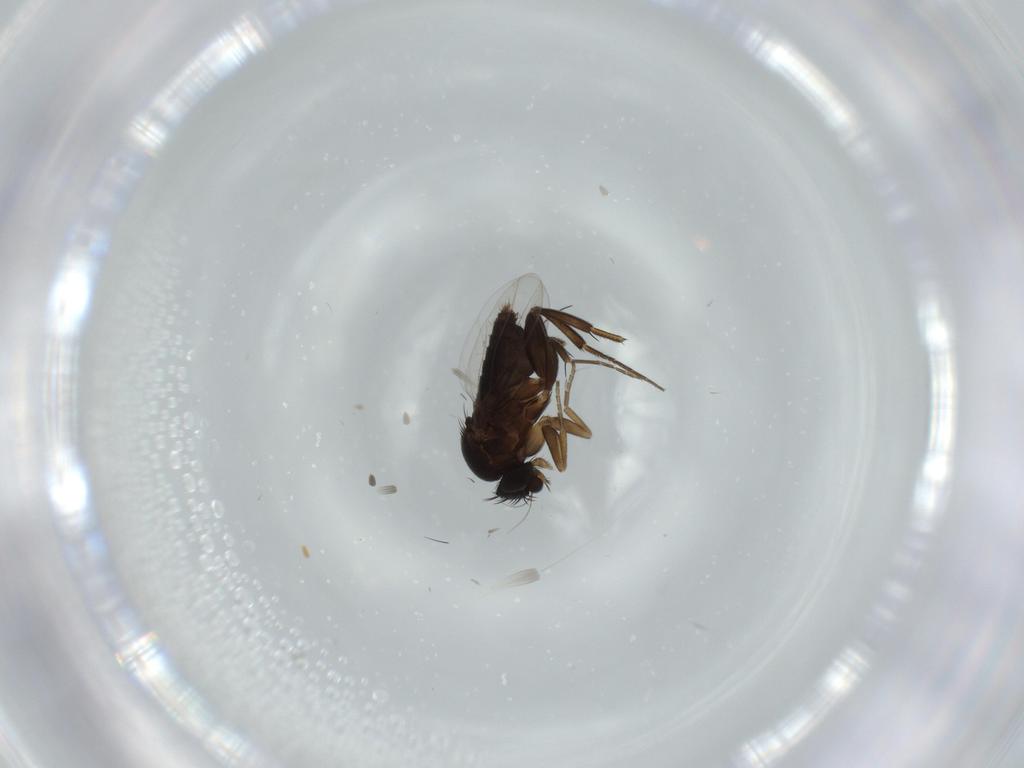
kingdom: Animalia
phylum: Arthropoda
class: Insecta
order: Diptera
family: Phoridae
